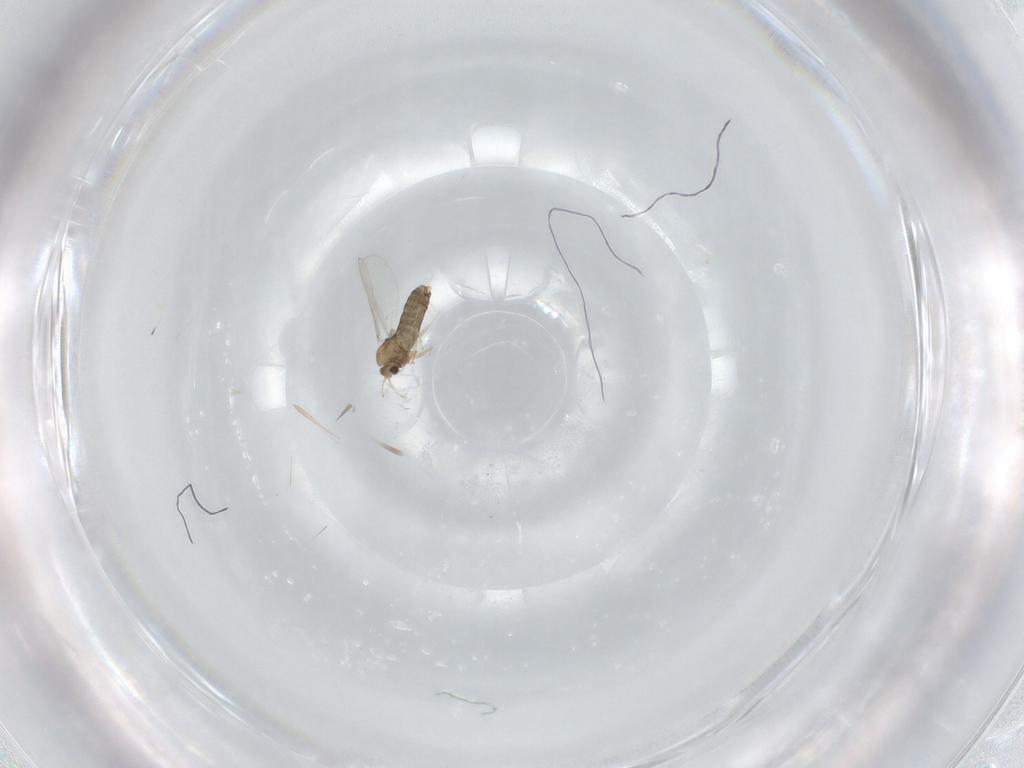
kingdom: Animalia
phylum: Arthropoda
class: Insecta
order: Diptera
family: Chironomidae
